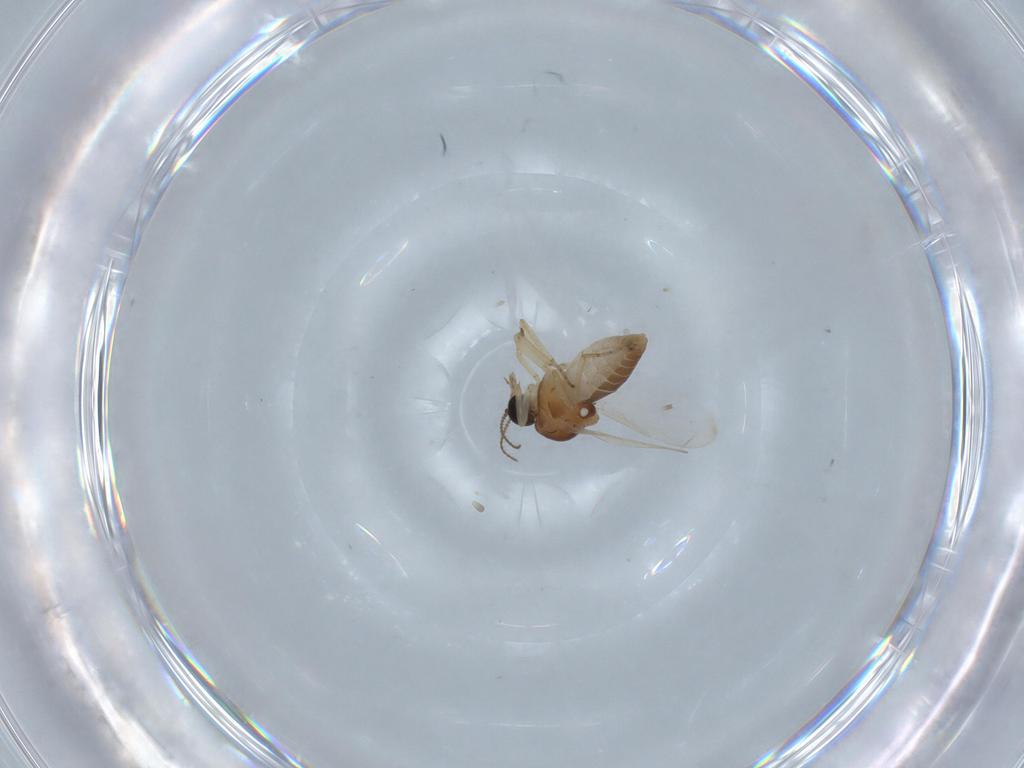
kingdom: Animalia
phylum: Arthropoda
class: Insecta
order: Diptera
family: Ceratopogonidae
